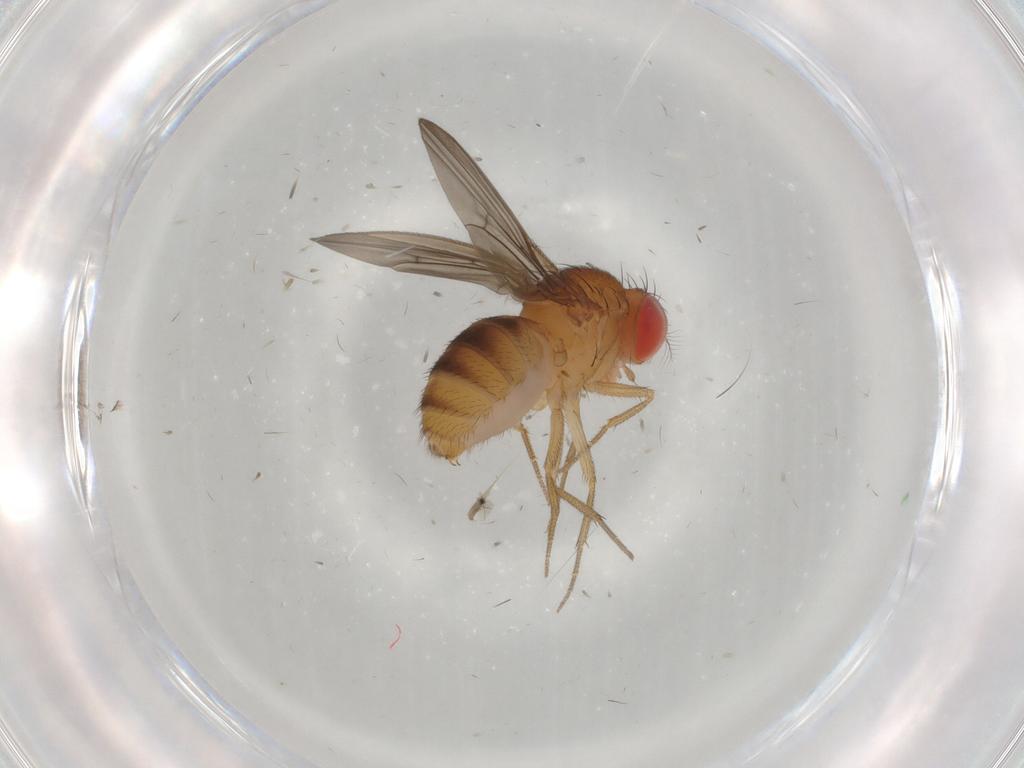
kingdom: Animalia
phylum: Arthropoda
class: Insecta
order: Diptera
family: Drosophilidae
